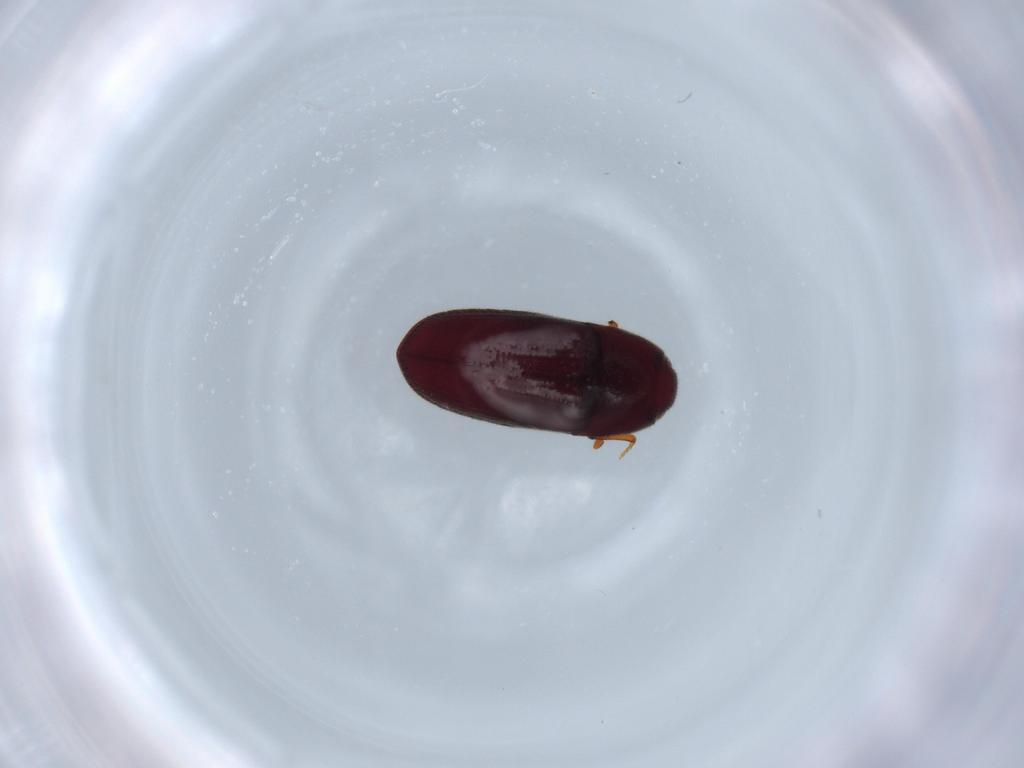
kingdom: Animalia
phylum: Arthropoda
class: Insecta
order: Coleoptera
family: Throscidae
